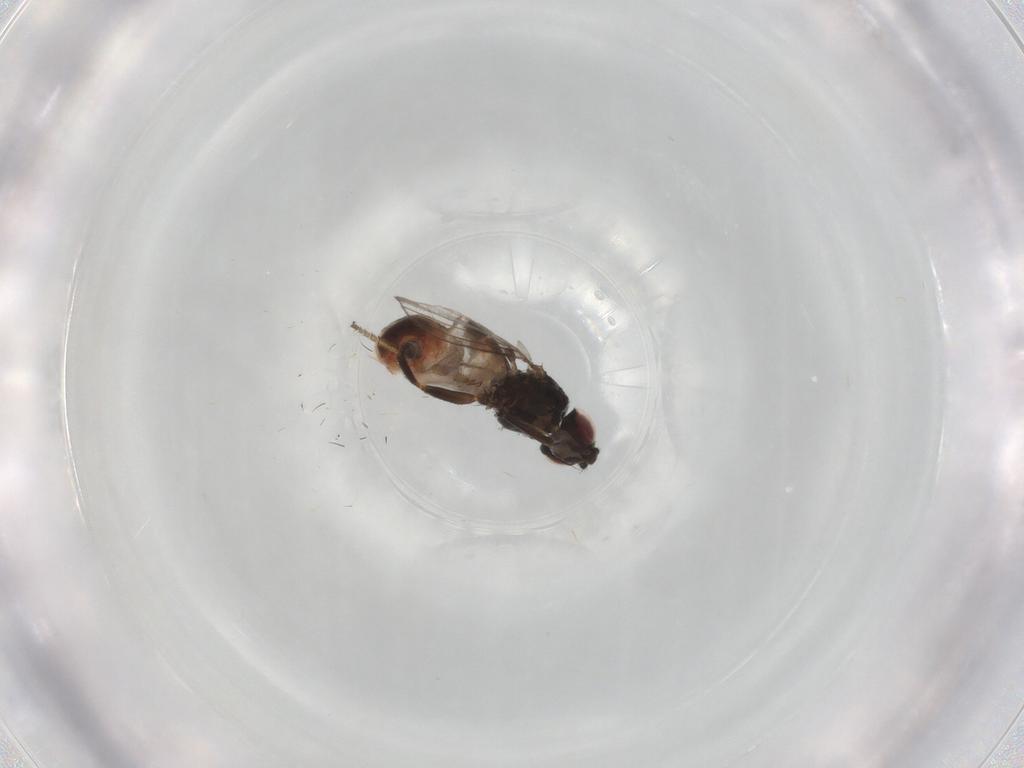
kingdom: Animalia
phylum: Arthropoda
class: Insecta
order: Diptera
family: Milichiidae
